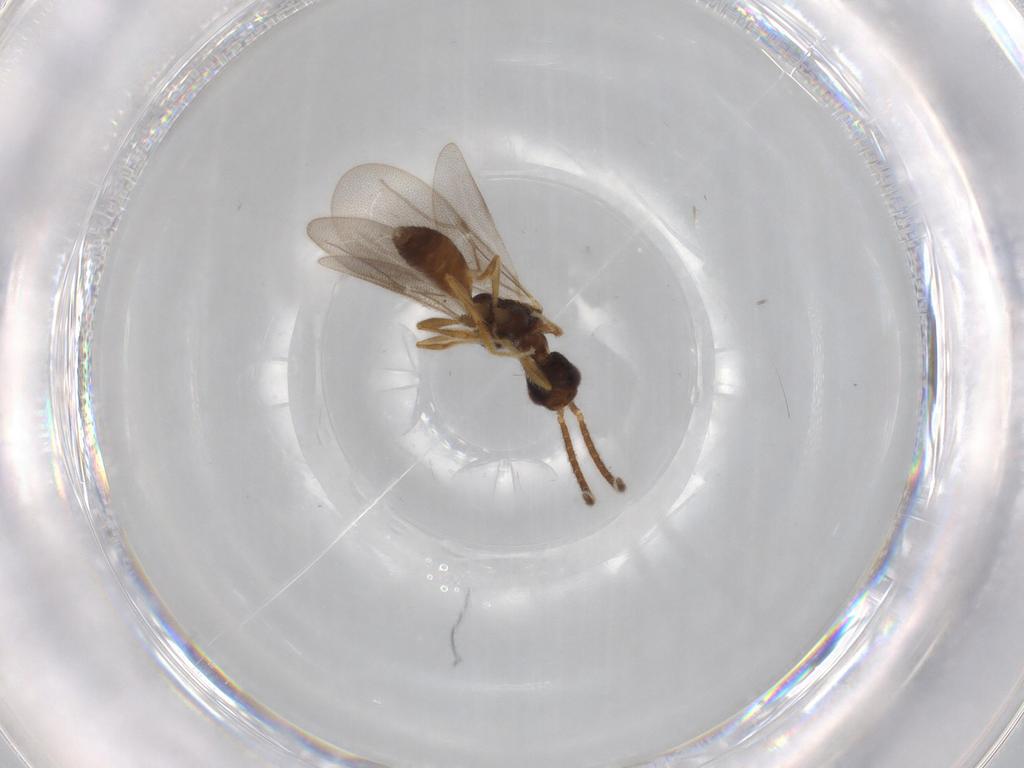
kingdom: Animalia
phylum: Arthropoda
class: Insecta
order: Hymenoptera
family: Bethylidae
